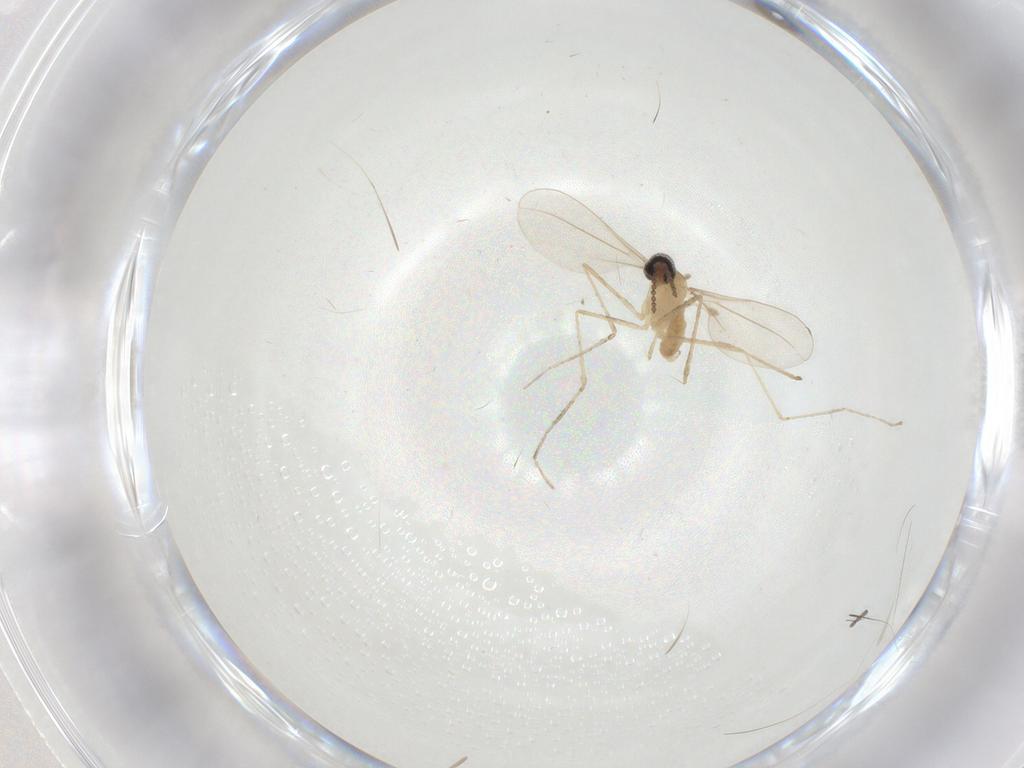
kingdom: Animalia
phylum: Arthropoda
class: Insecta
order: Diptera
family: Cecidomyiidae
